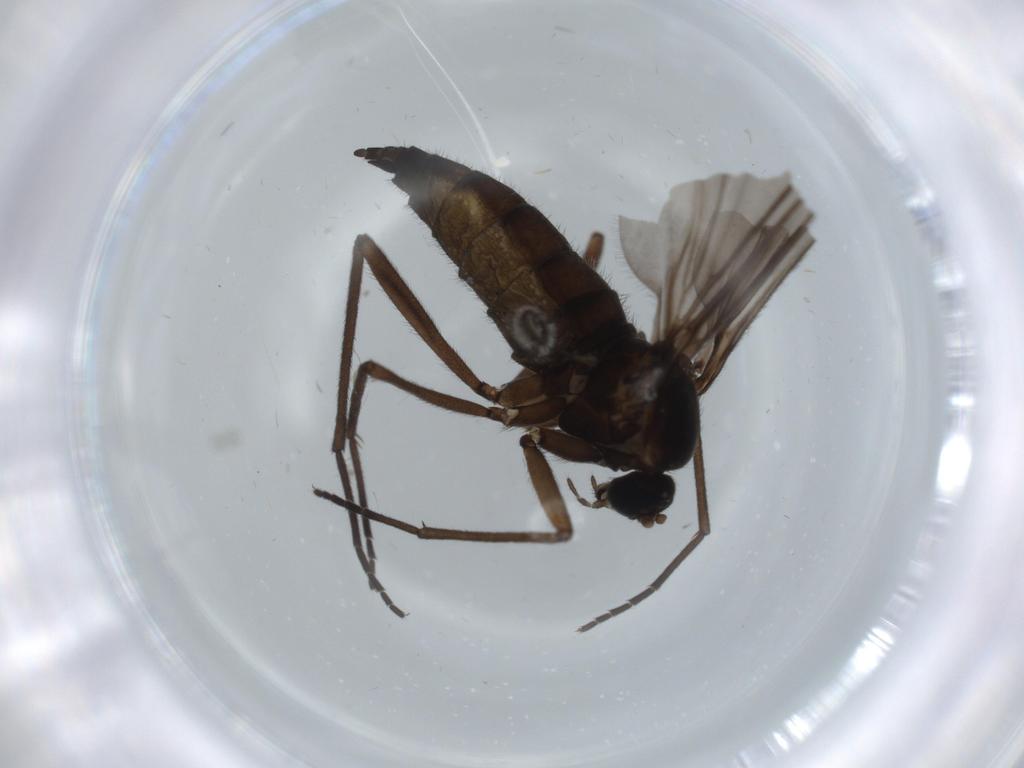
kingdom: Animalia
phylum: Arthropoda
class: Insecta
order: Diptera
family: Sciaridae
